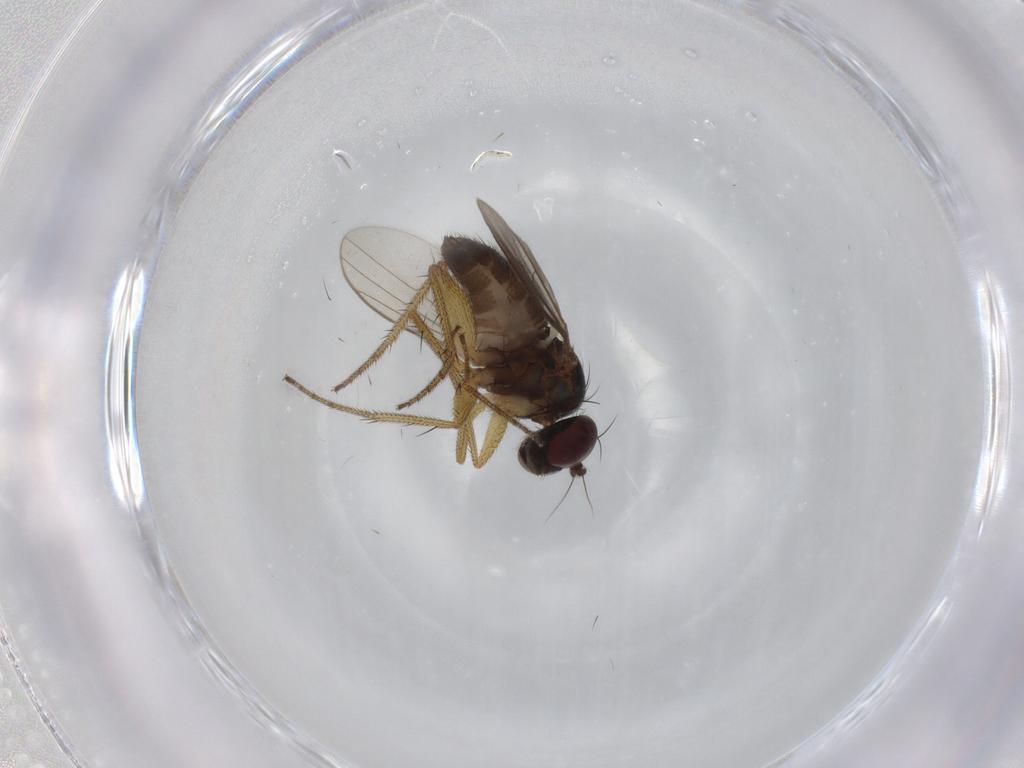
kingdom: Animalia
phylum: Arthropoda
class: Insecta
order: Diptera
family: Dolichopodidae
